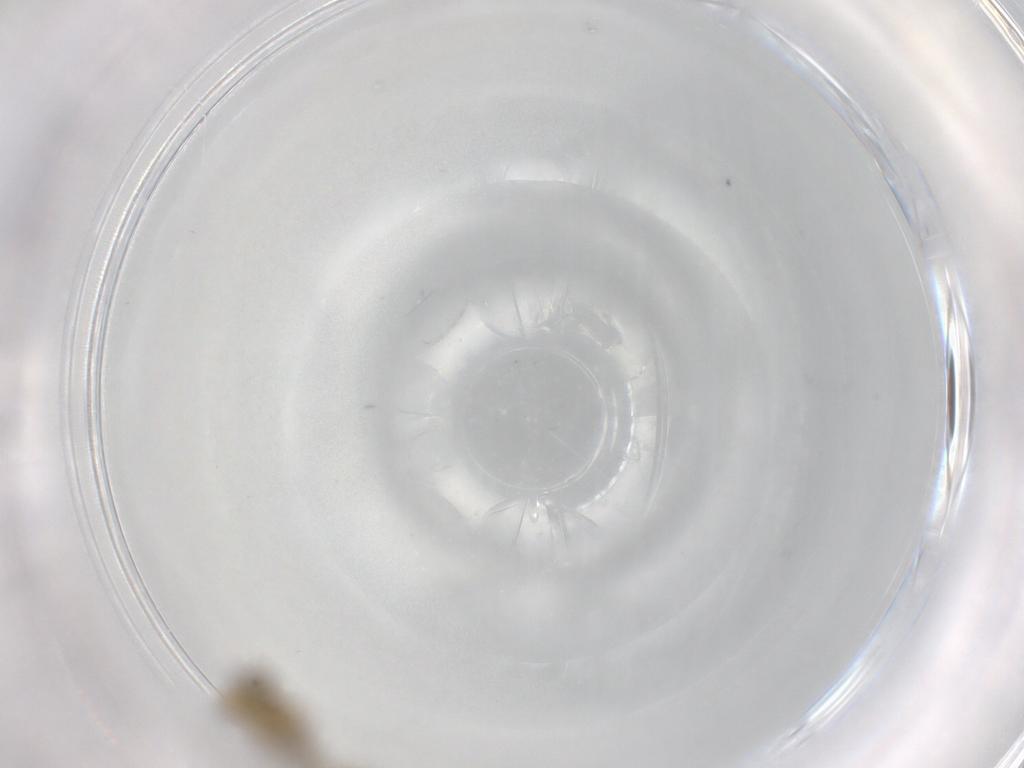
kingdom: Animalia
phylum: Arthropoda
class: Insecta
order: Diptera
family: Chironomidae
